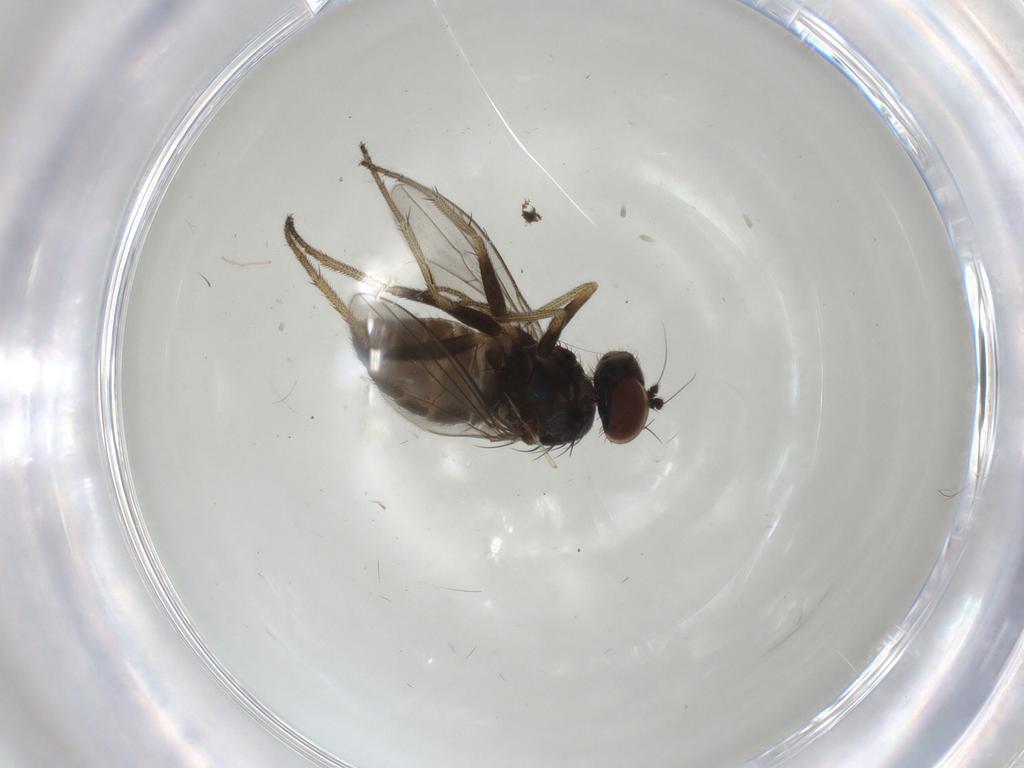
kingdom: Animalia
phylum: Arthropoda
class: Insecta
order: Diptera
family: Dolichopodidae
